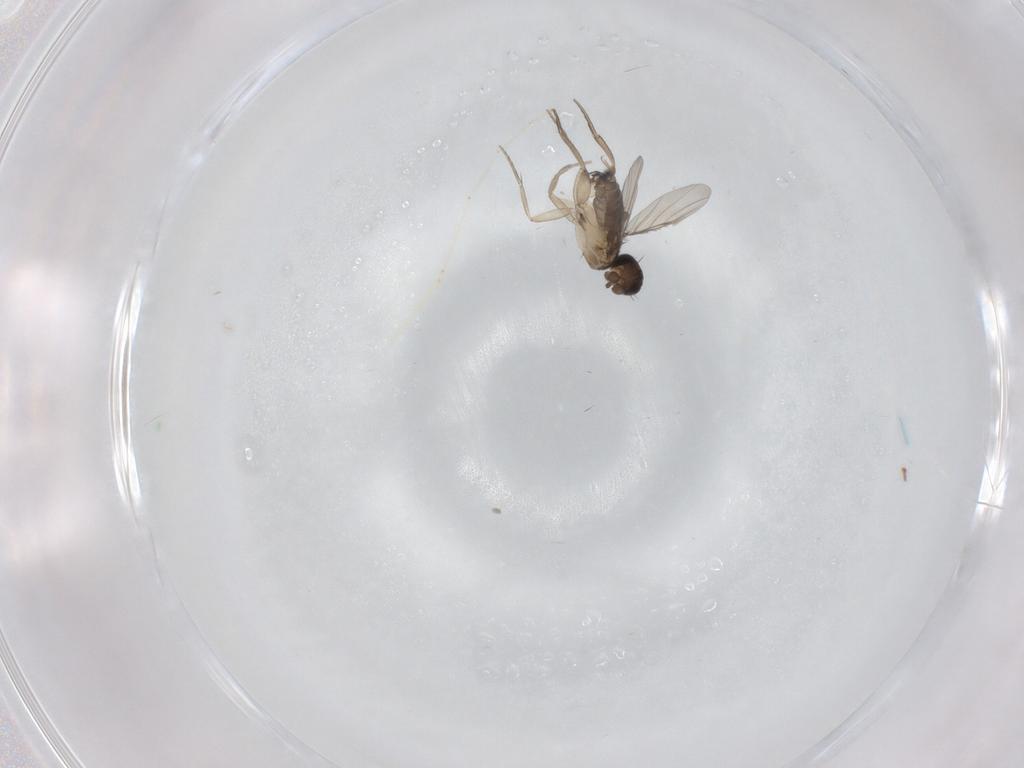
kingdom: Animalia
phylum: Arthropoda
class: Insecta
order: Diptera
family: Phoridae
